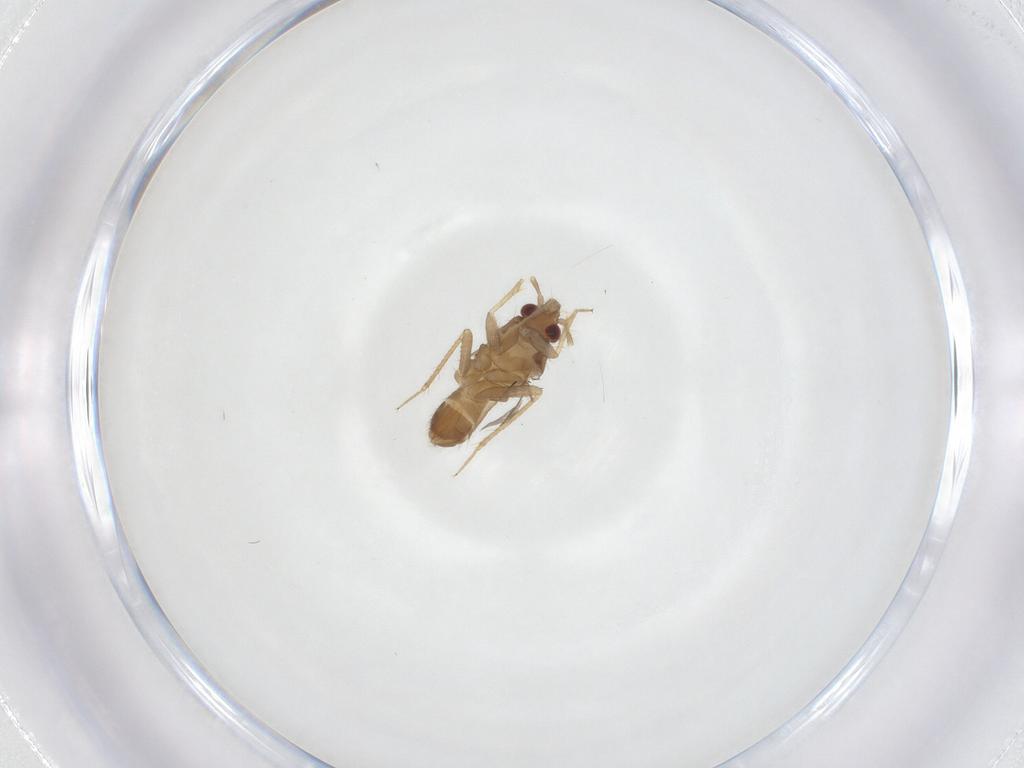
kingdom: Animalia
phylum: Arthropoda
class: Insecta
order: Hemiptera
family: Ceratocombidae
